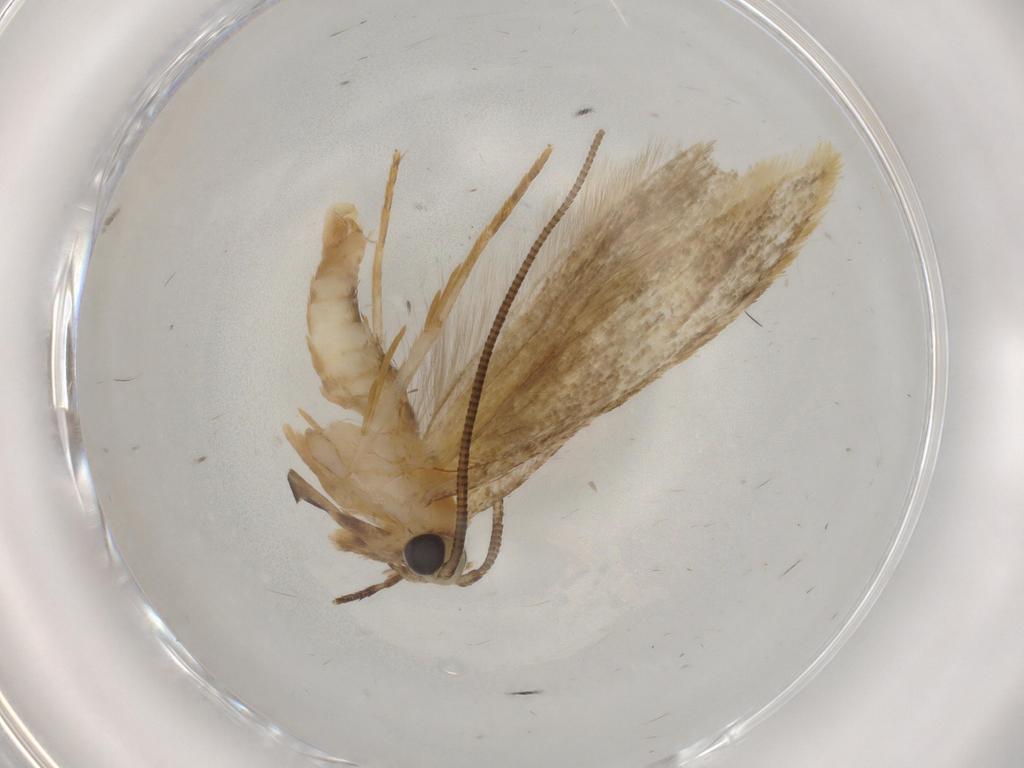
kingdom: Animalia
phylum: Arthropoda
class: Insecta
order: Lepidoptera
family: Tineidae
